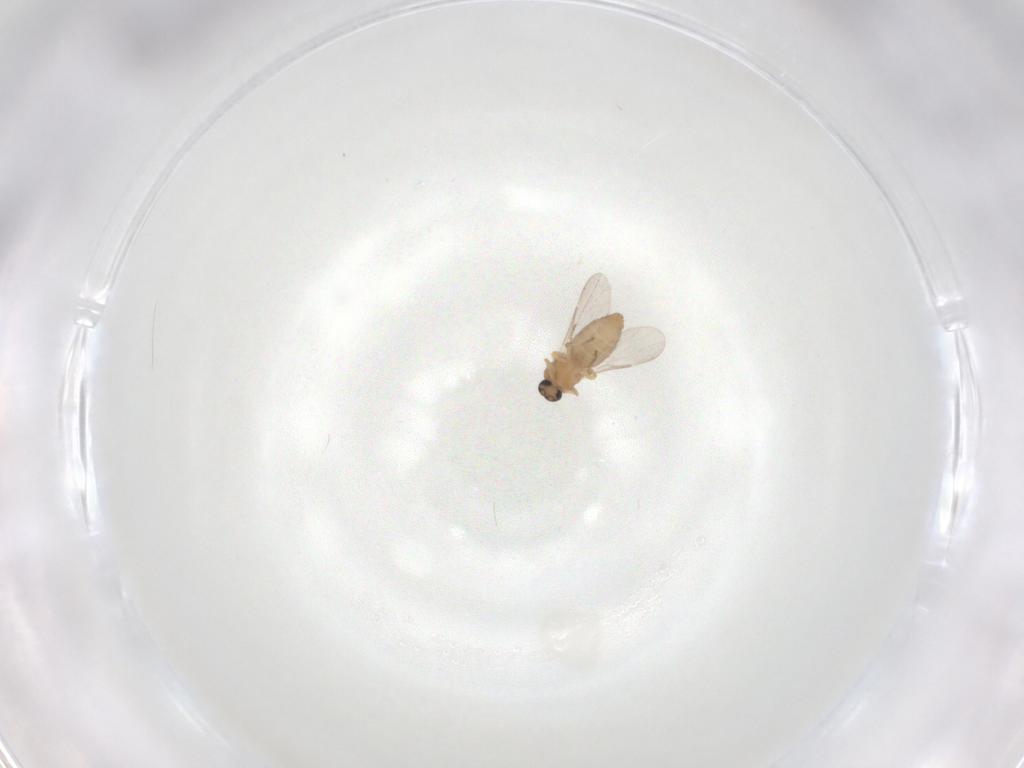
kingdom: Animalia
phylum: Arthropoda
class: Insecta
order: Diptera
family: Ceratopogonidae
